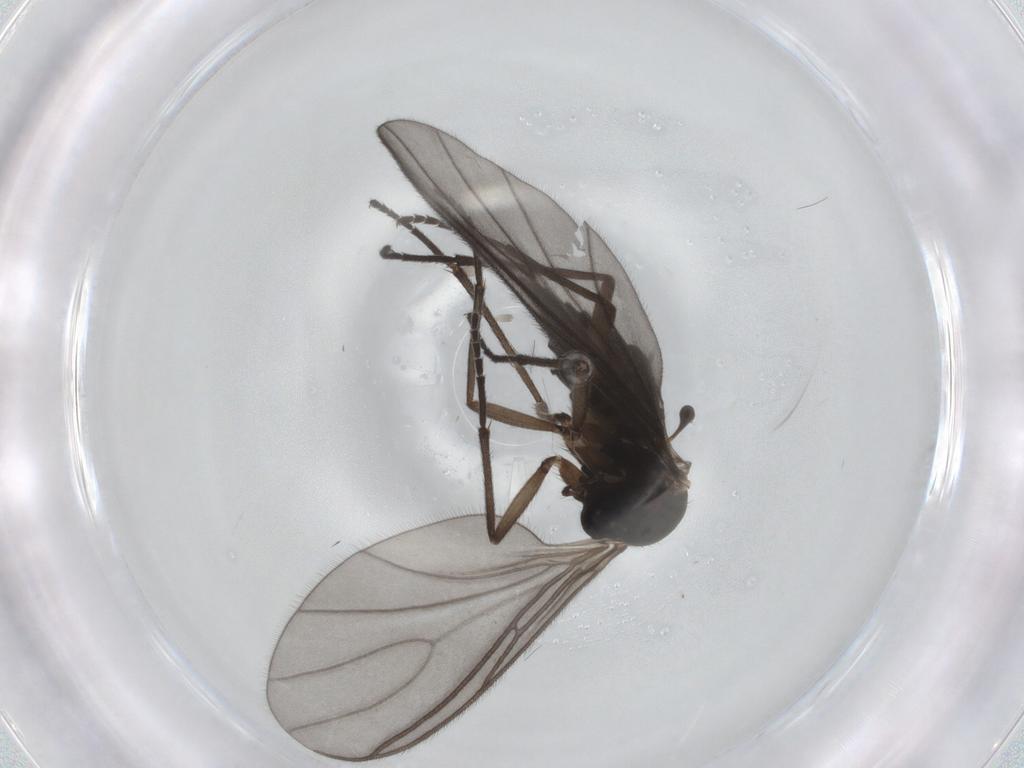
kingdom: Animalia
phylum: Arthropoda
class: Insecta
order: Diptera
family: Sciaridae
